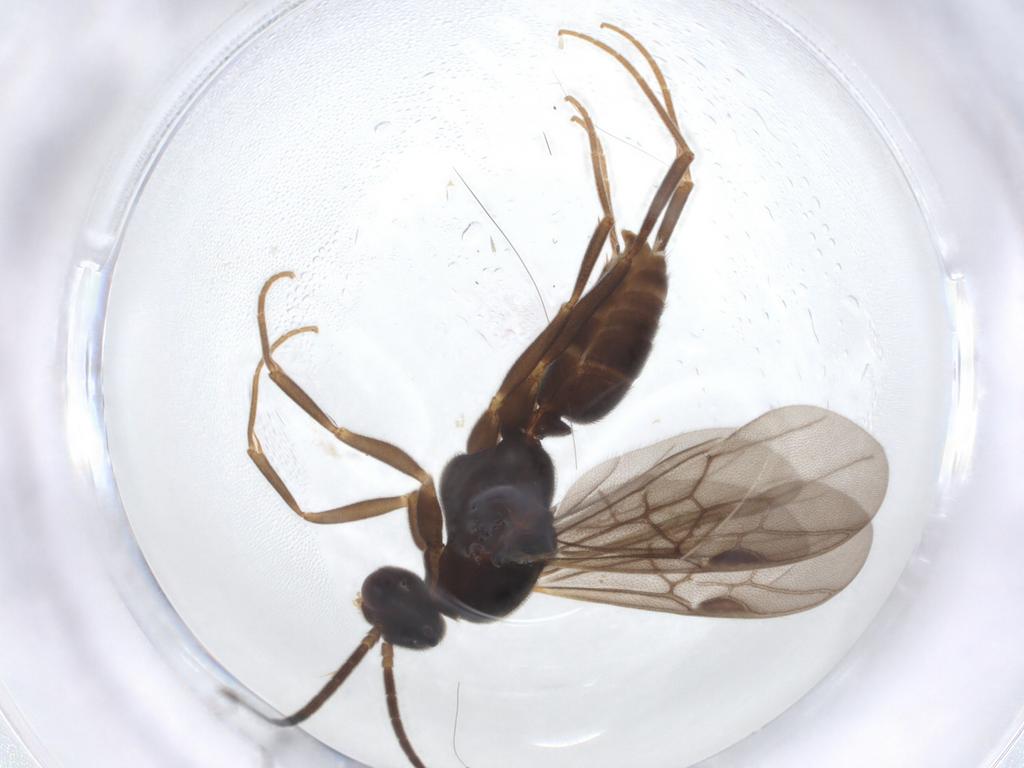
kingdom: Animalia
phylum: Arthropoda
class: Insecta
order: Hymenoptera
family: Formicidae
